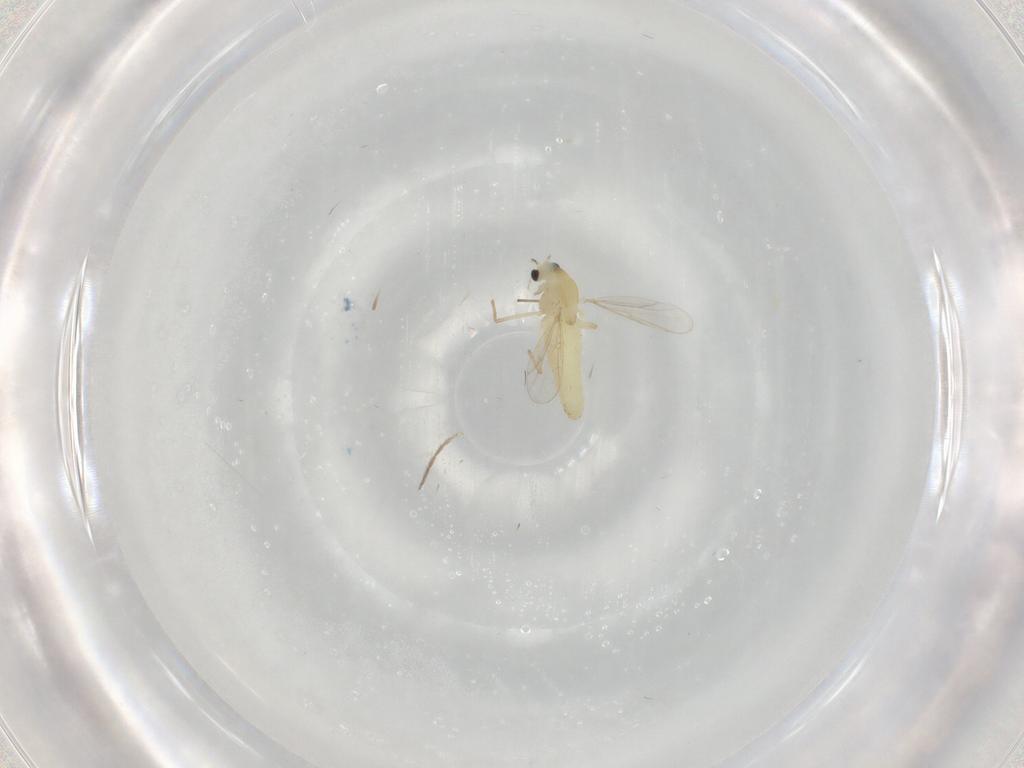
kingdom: Animalia
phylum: Arthropoda
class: Insecta
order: Diptera
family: Chironomidae
